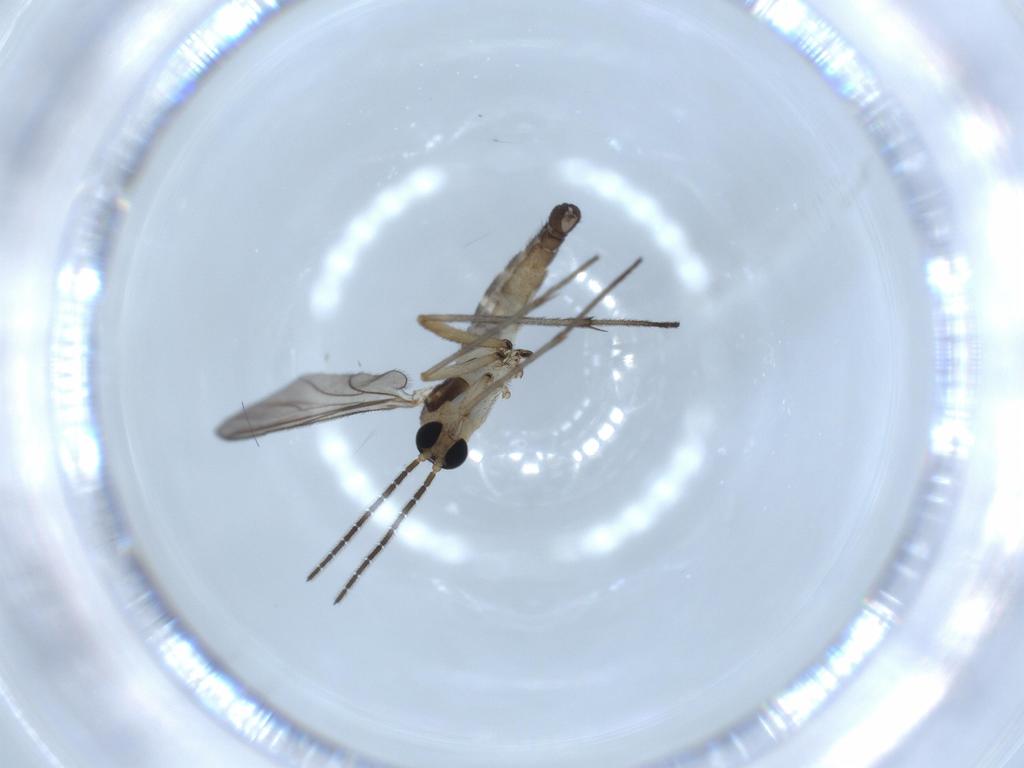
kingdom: Animalia
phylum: Arthropoda
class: Insecta
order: Diptera
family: Sciaridae
